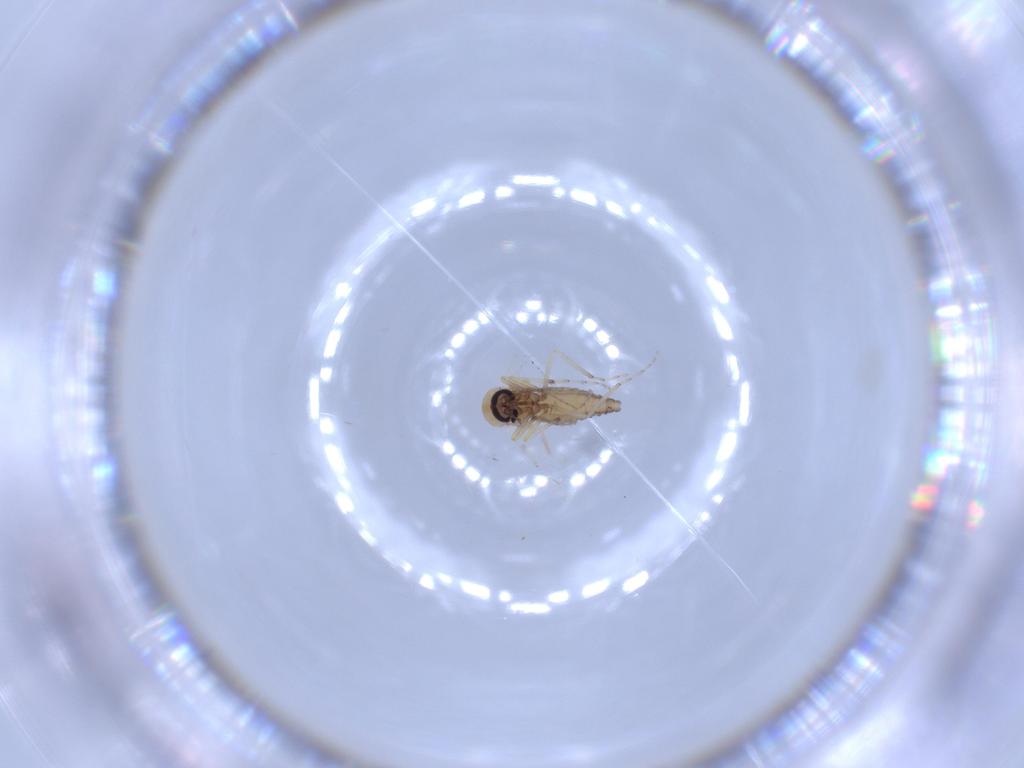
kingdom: Animalia
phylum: Arthropoda
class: Insecta
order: Diptera
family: Ceratopogonidae
